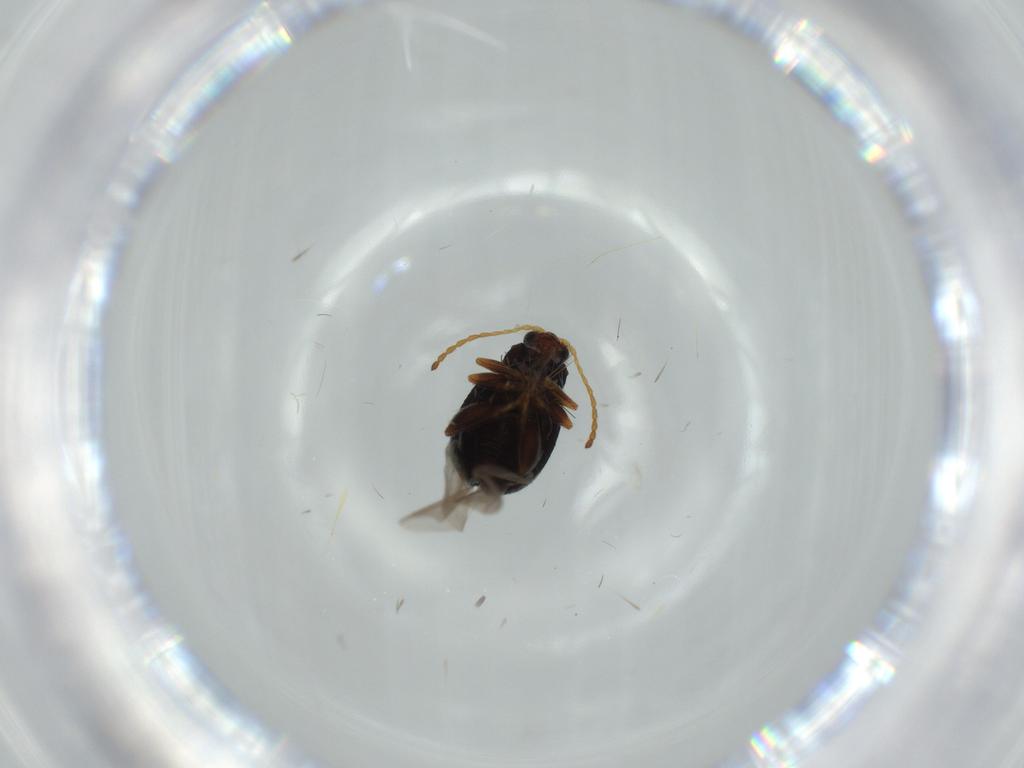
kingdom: Animalia
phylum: Arthropoda
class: Insecta
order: Coleoptera
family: Chrysomelidae
